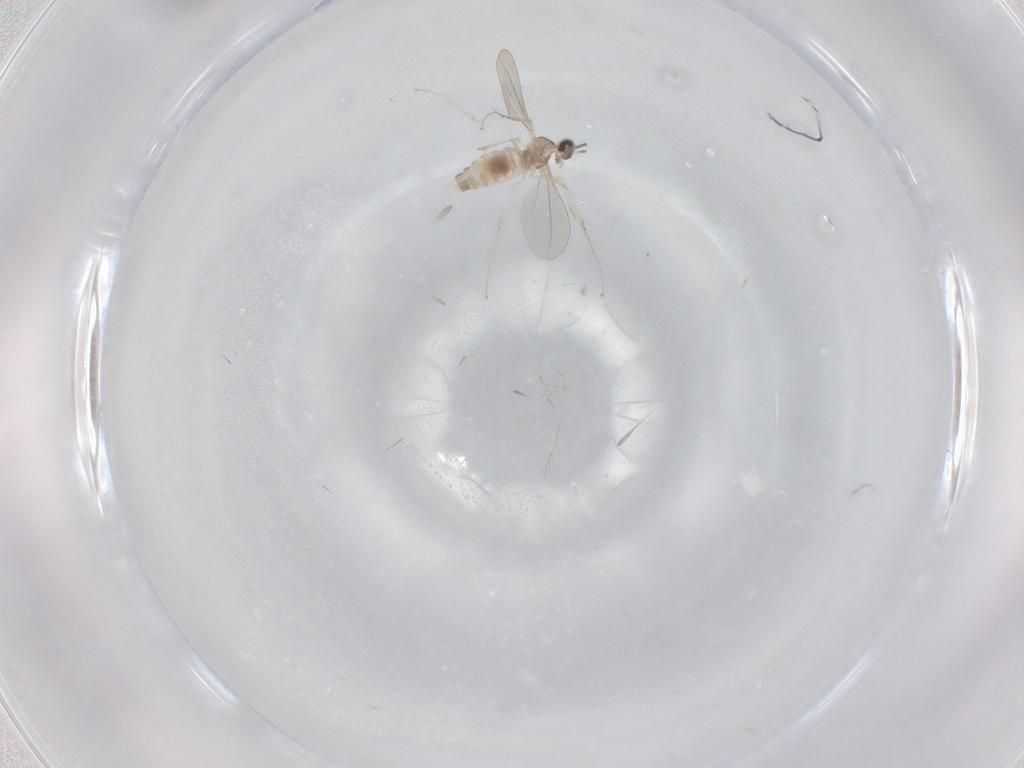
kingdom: Animalia
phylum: Arthropoda
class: Insecta
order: Diptera
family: Cecidomyiidae
